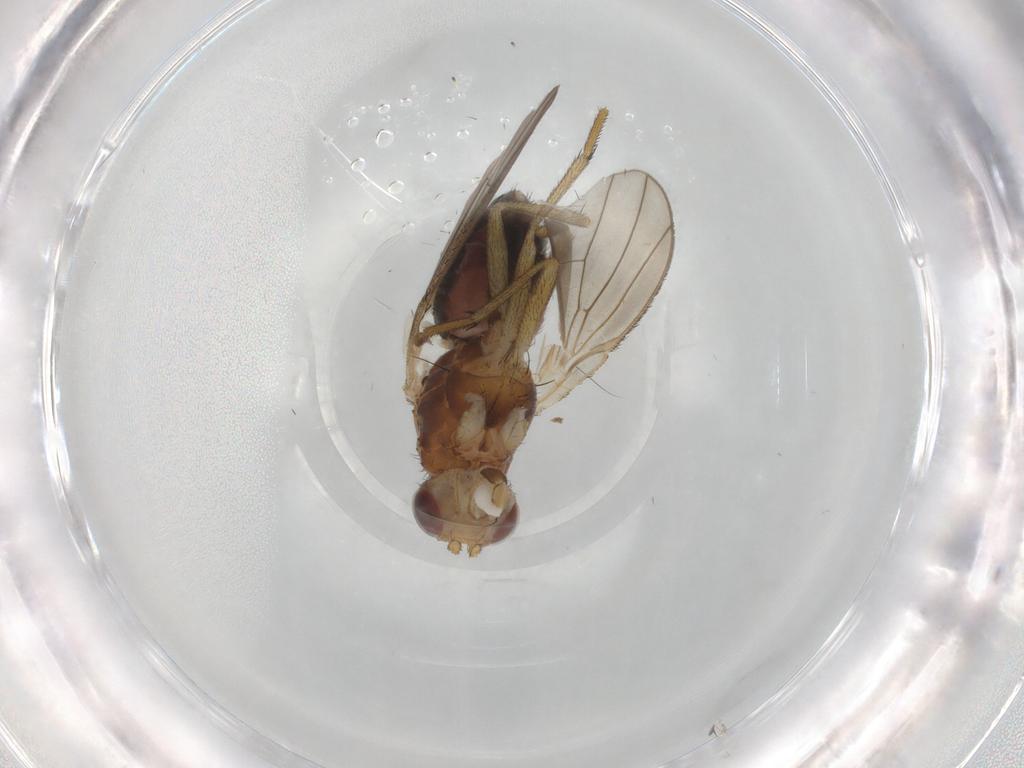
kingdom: Animalia
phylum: Arthropoda
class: Insecta
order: Diptera
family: Heleomyzidae
